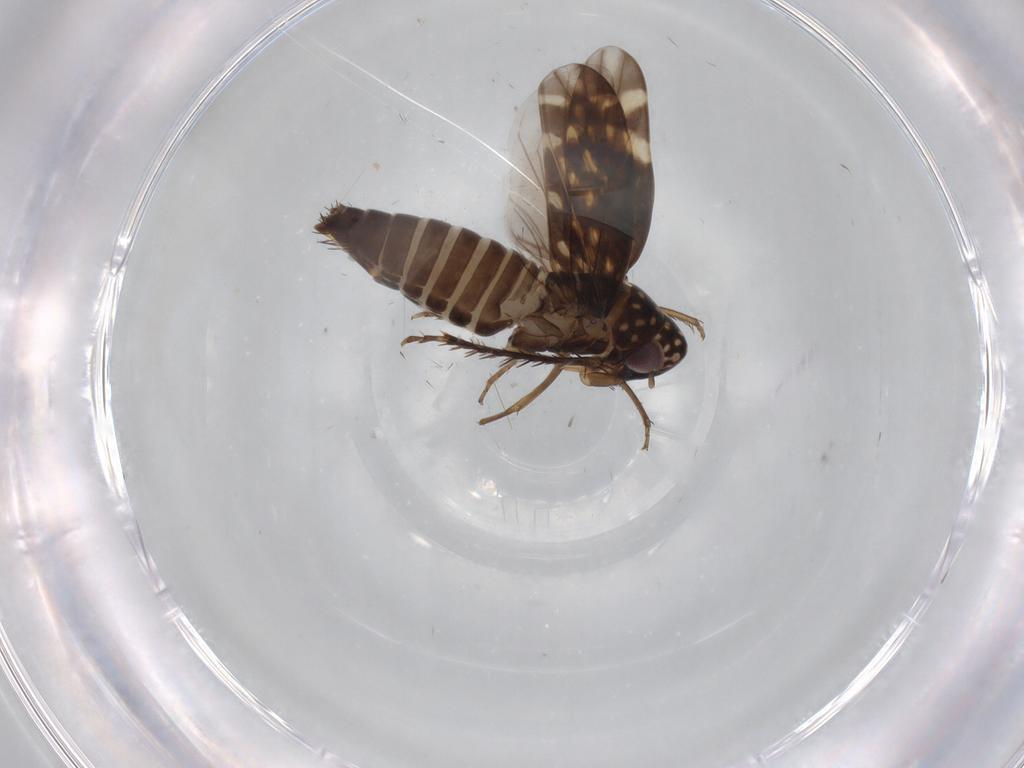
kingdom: Animalia
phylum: Arthropoda
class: Insecta
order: Hemiptera
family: Cicadellidae
